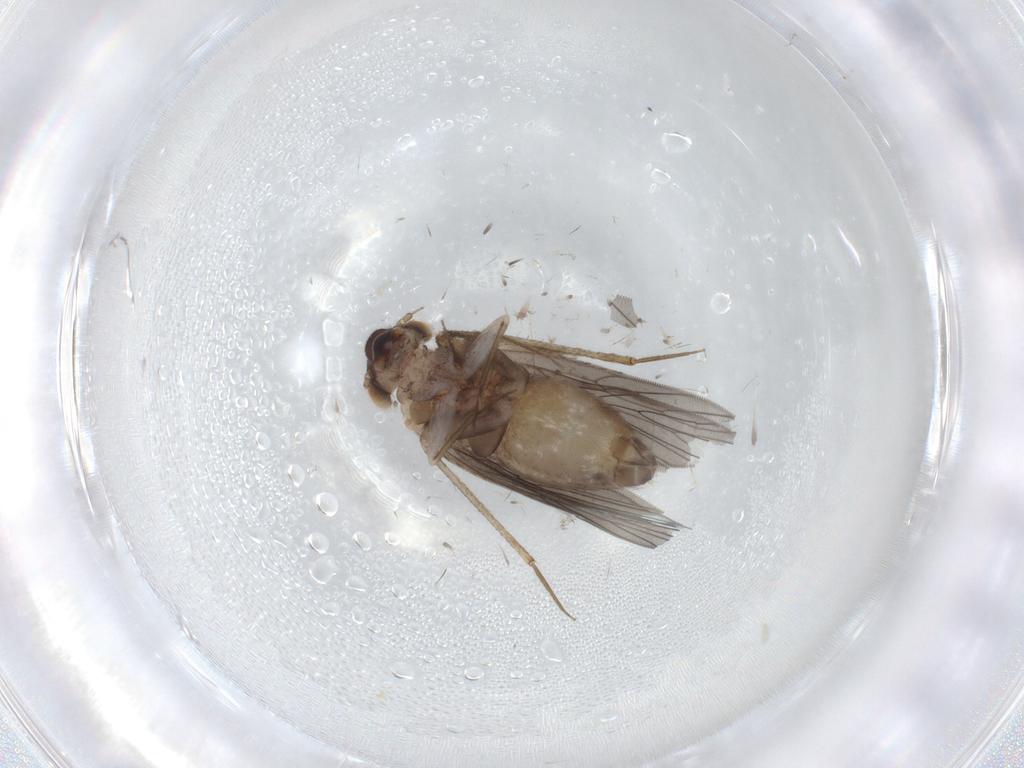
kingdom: Animalia
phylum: Arthropoda
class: Insecta
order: Psocodea
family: Lepidopsocidae
